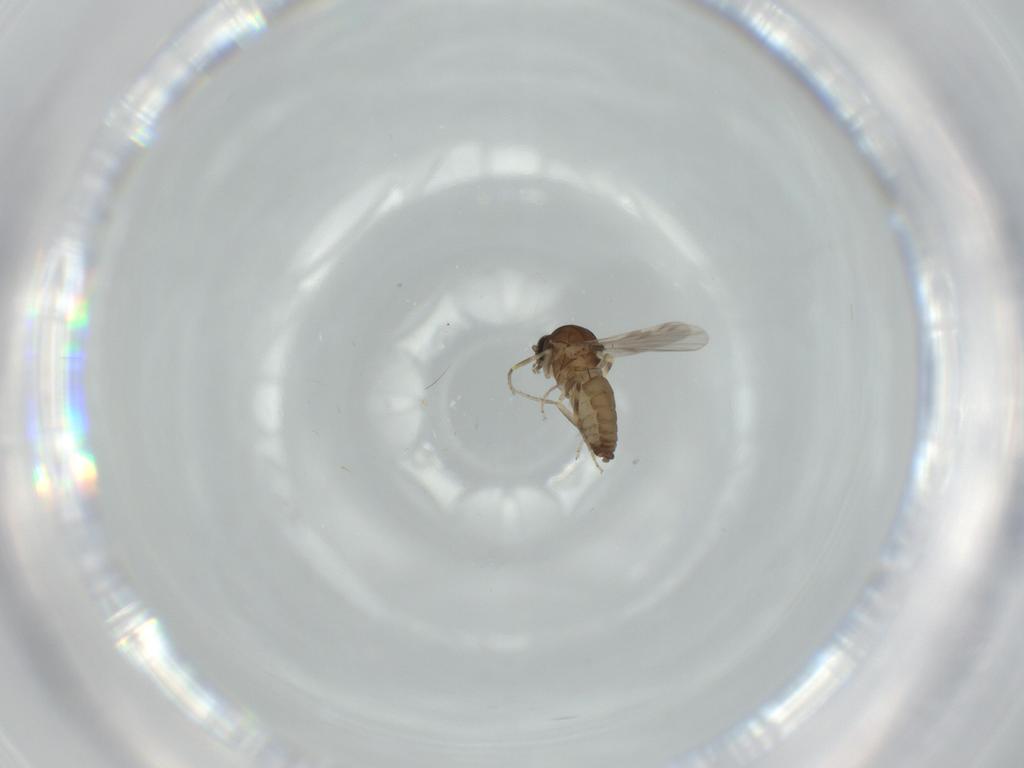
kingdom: Animalia
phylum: Arthropoda
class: Insecta
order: Diptera
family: Ceratopogonidae
